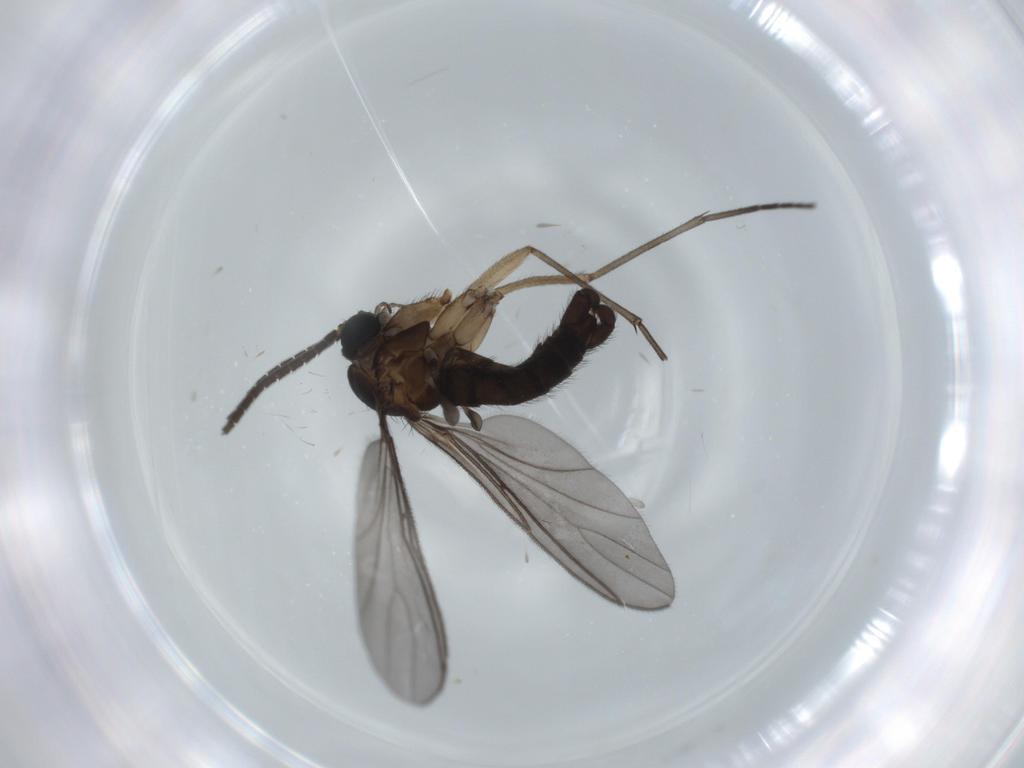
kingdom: Animalia
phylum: Arthropoda
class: Insecta
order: Diptera
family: Sciaridae
